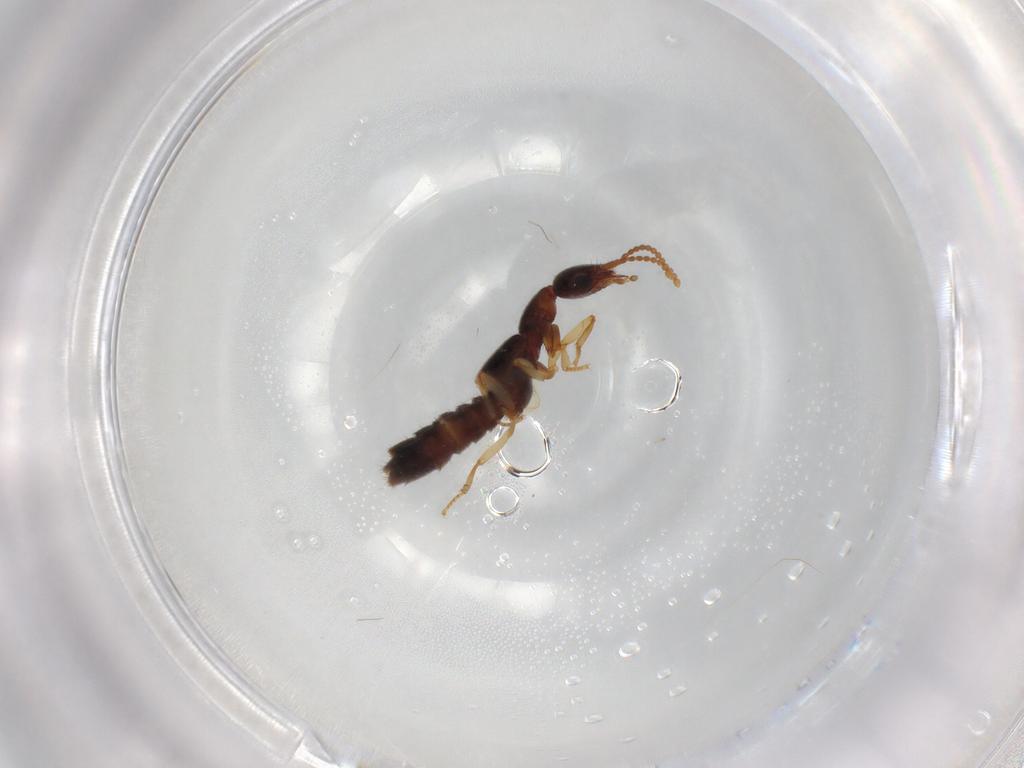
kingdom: Animalia
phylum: Arthropoda
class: Insecta
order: Coleoptera
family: Staphylinidae
